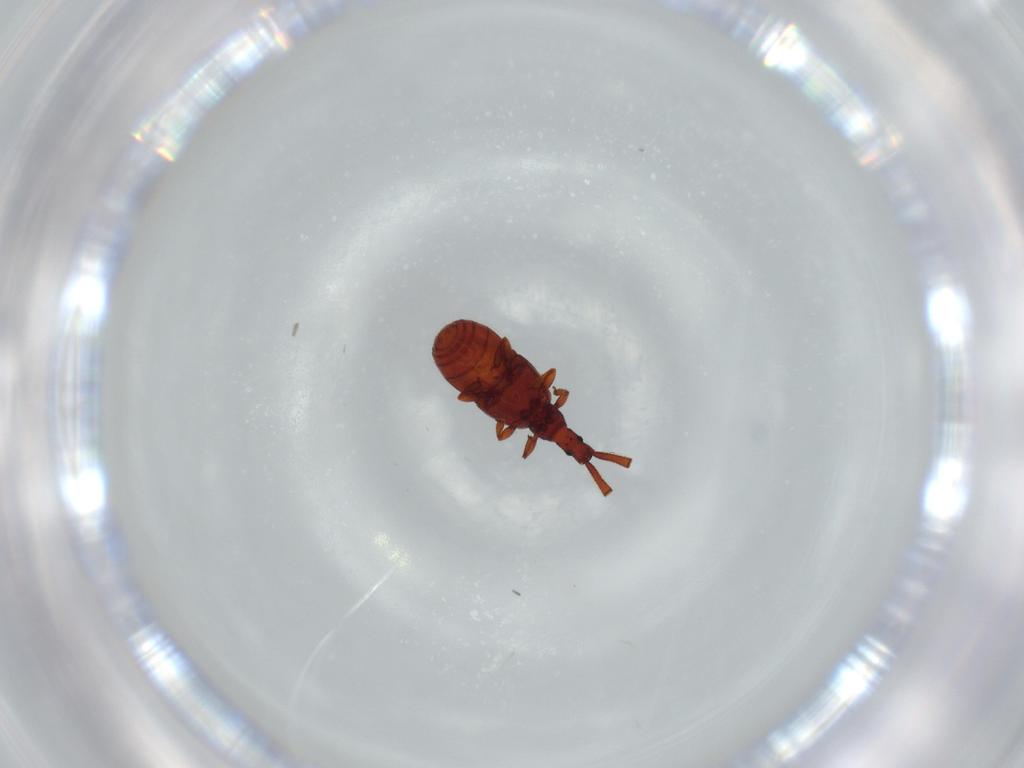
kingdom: Animalia
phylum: Arthropoda
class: Insecta
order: Coleoptera
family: Staphylinidae
